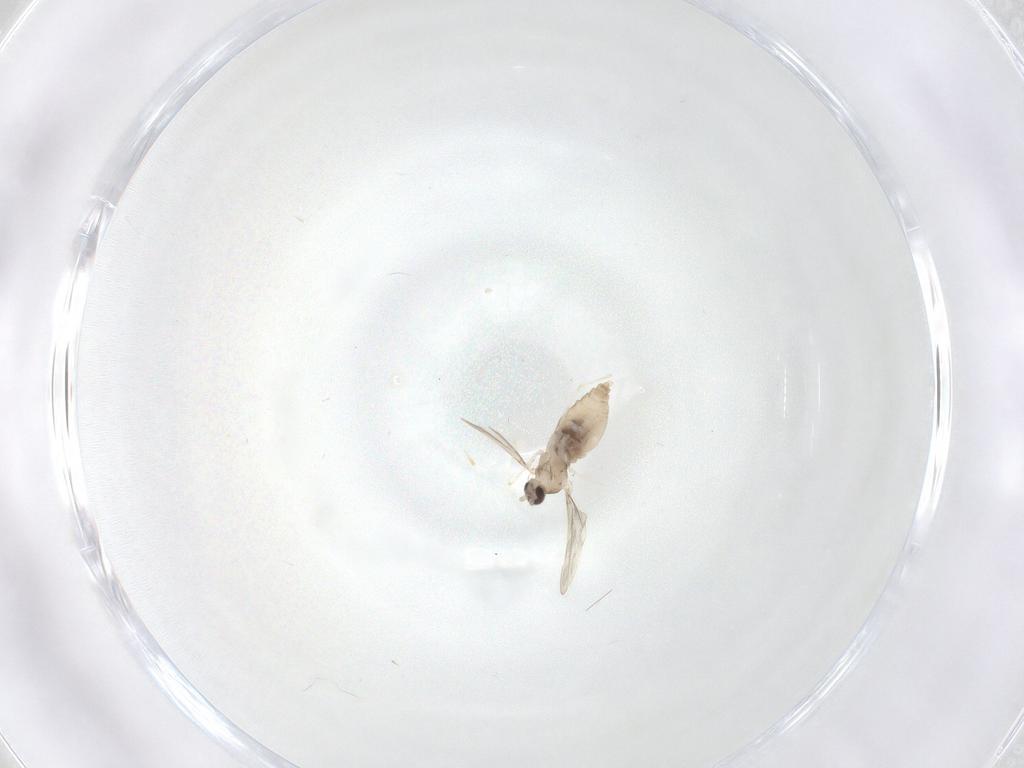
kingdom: Animalia
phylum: Arthropoda
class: Insecta
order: Diptera
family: Cecidomyiidae
